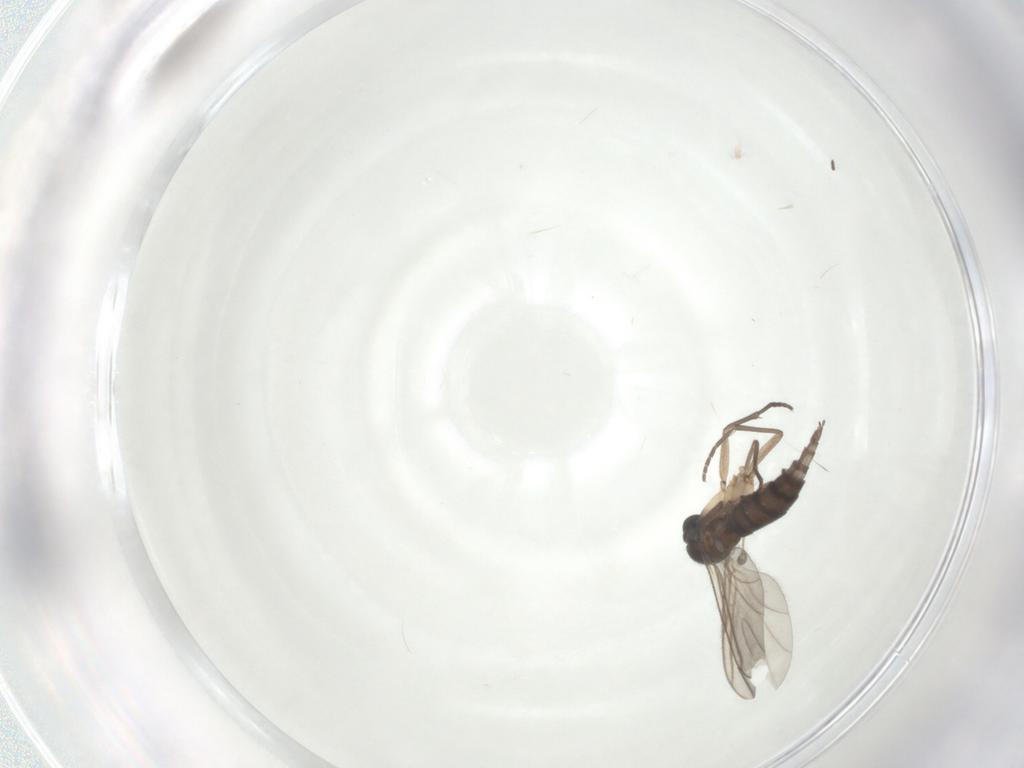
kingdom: Animalia
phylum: Arthropoda
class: Insecta
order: Diptera
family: Sciaridae
